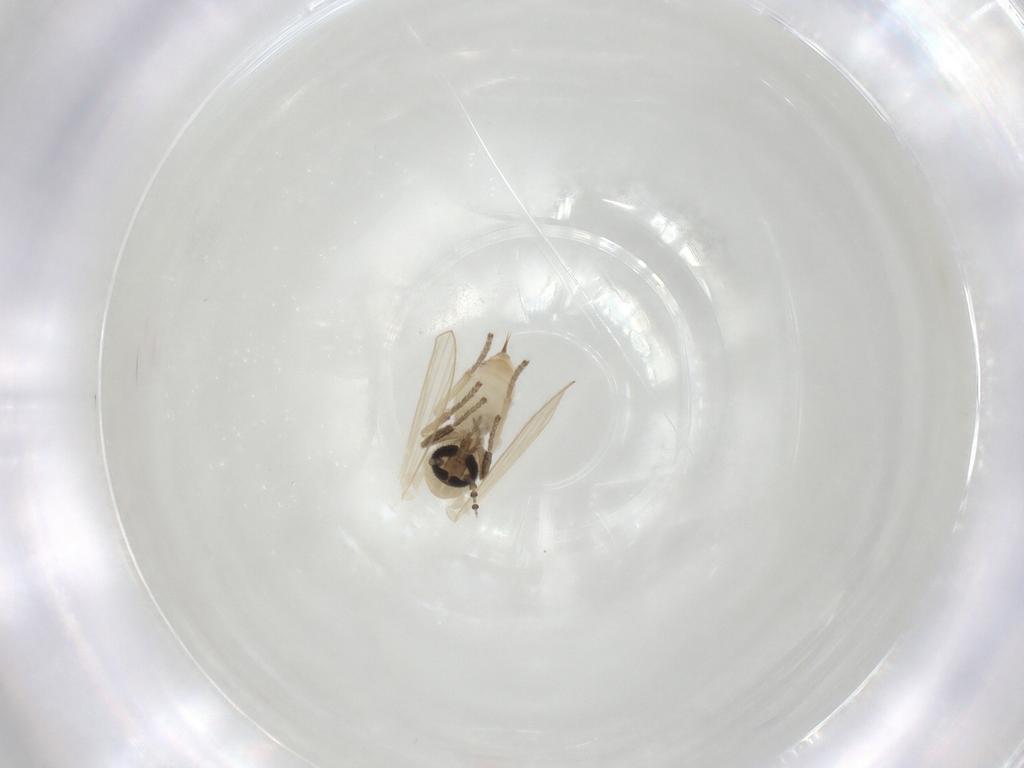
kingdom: Animalia
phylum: Arthropoda
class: Insecta
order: Diptera
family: Psychodidae
